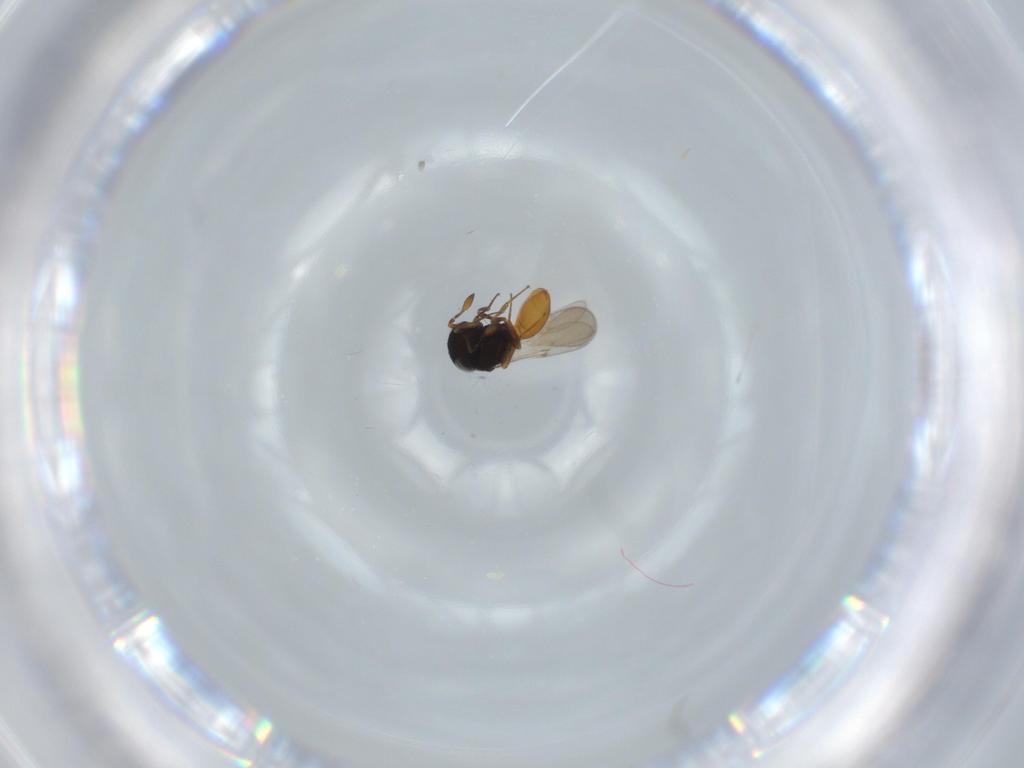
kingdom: Animalia
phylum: Arthropoda
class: Insecta
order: Hymenoptera
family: Scelionidae
